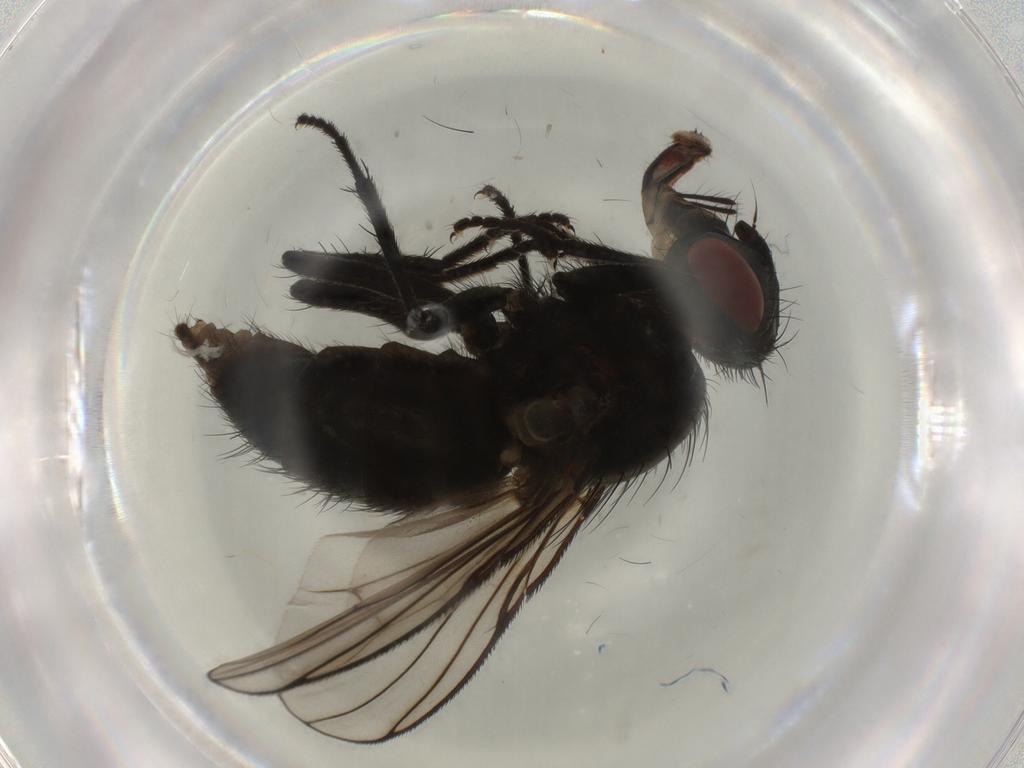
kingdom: Animalia
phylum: Arthropoda
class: Insecta
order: Diptera
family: Muscidae
